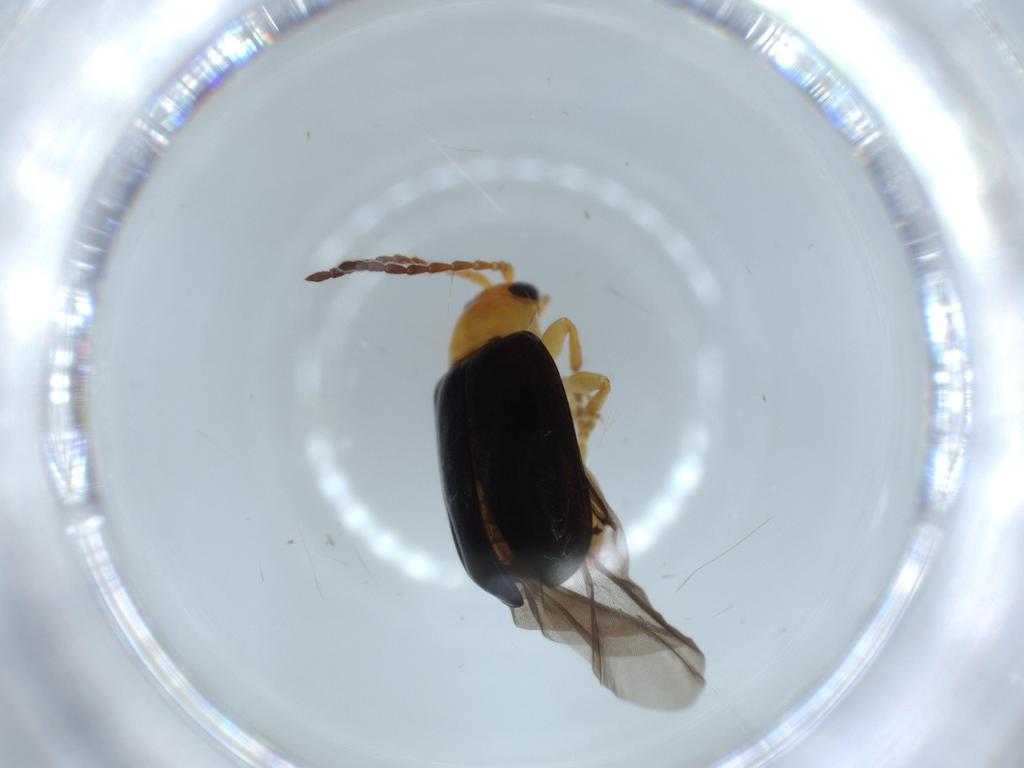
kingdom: Animalia
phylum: Arthropoda
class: Insecta
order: Coleoptera
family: Chrysomelidae
